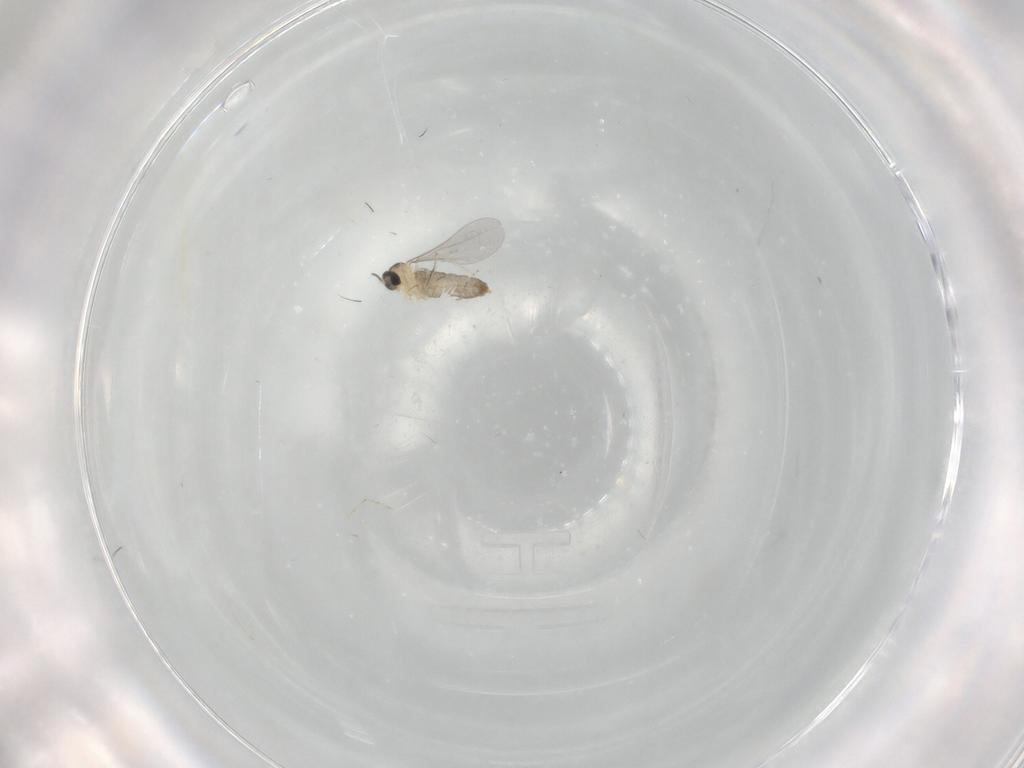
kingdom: Animalia
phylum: Arthropoda
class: Insecta
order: Diptera
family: Cecidomyiidae
